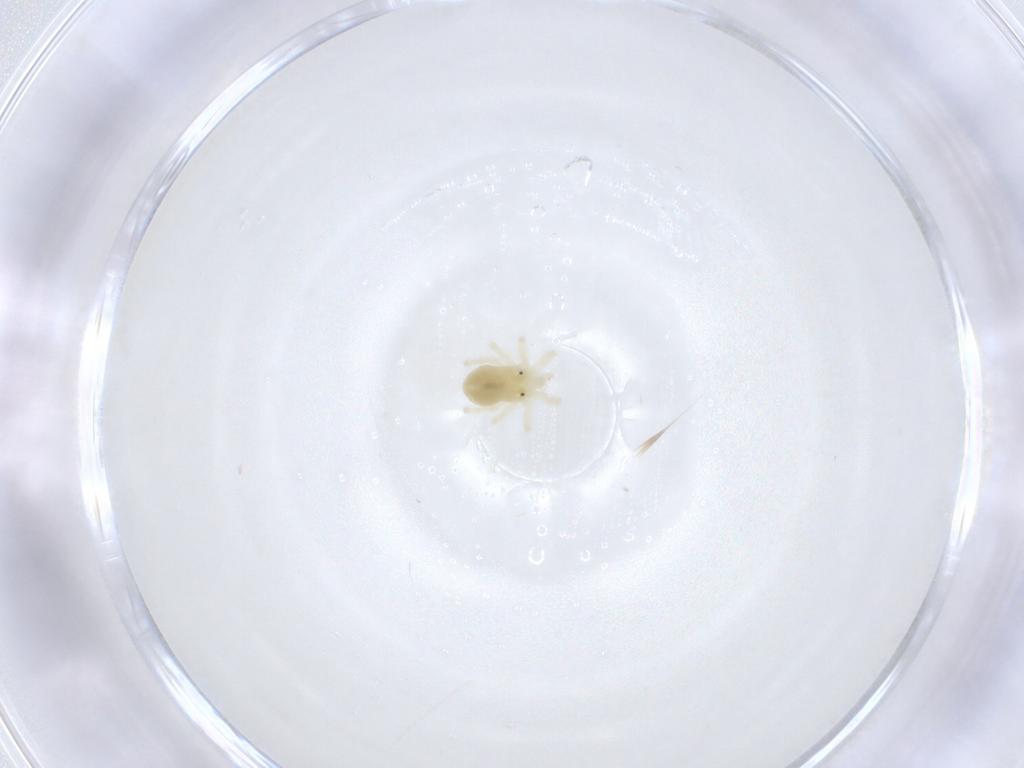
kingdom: Animalia
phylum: Arthropoda
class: Arachnida
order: Trombidiformes
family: Anystidae
